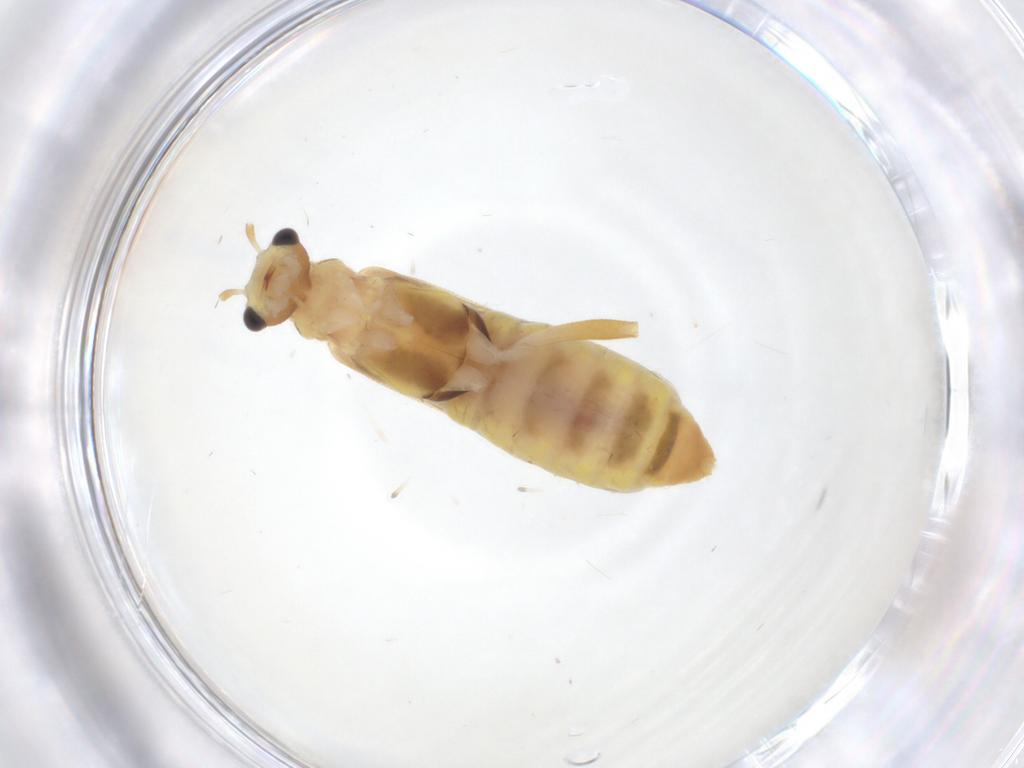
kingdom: Animalia
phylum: Arthropoda
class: Insecta
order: Coleoptera
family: Cantharidae
